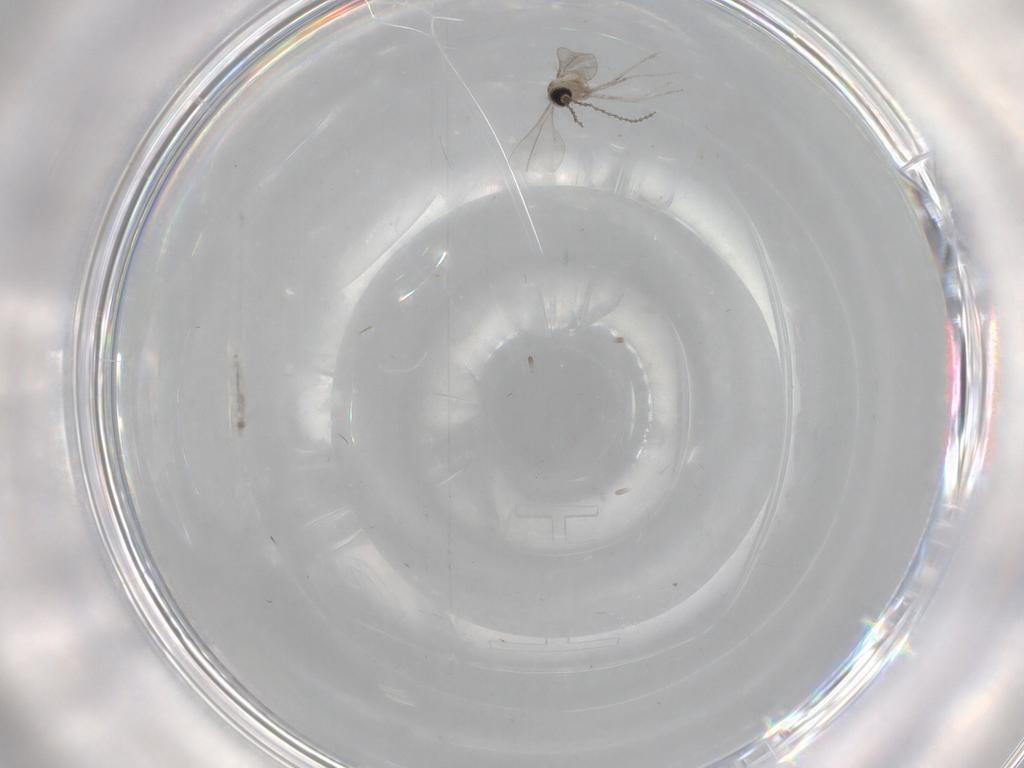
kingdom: Animalia
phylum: Arthropoda
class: Insecta
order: Diptera
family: Cecidomyiidae
